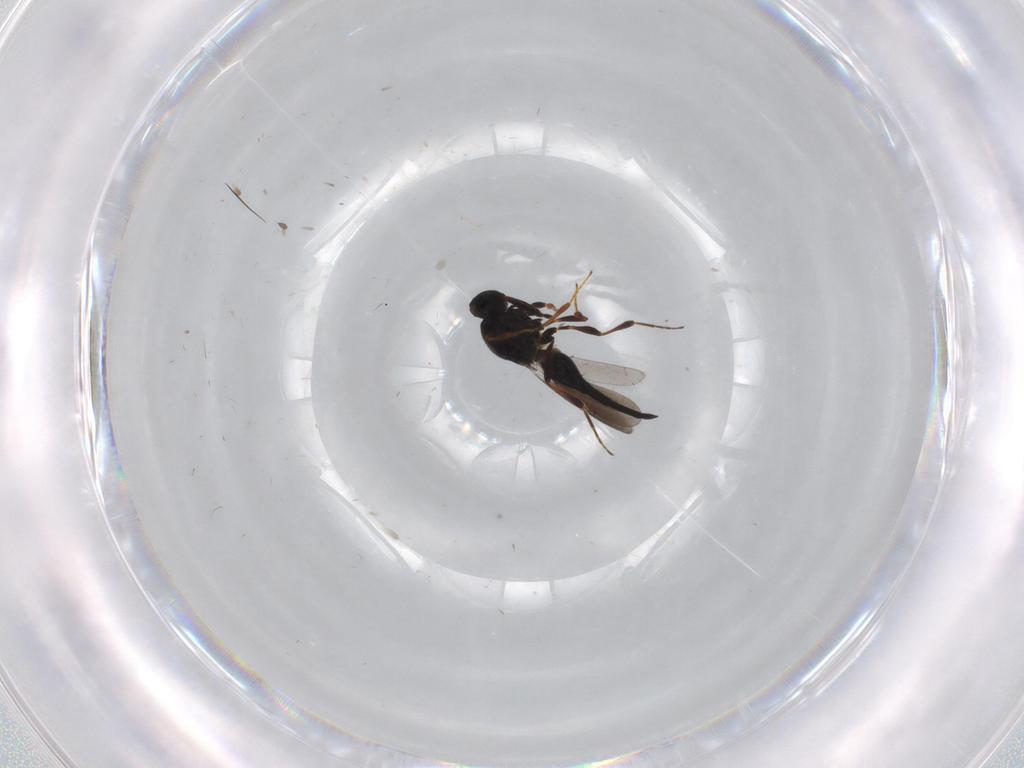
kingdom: Animalia
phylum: Arthropoda
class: Insecta
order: Hymenoptera
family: Platygastridae
